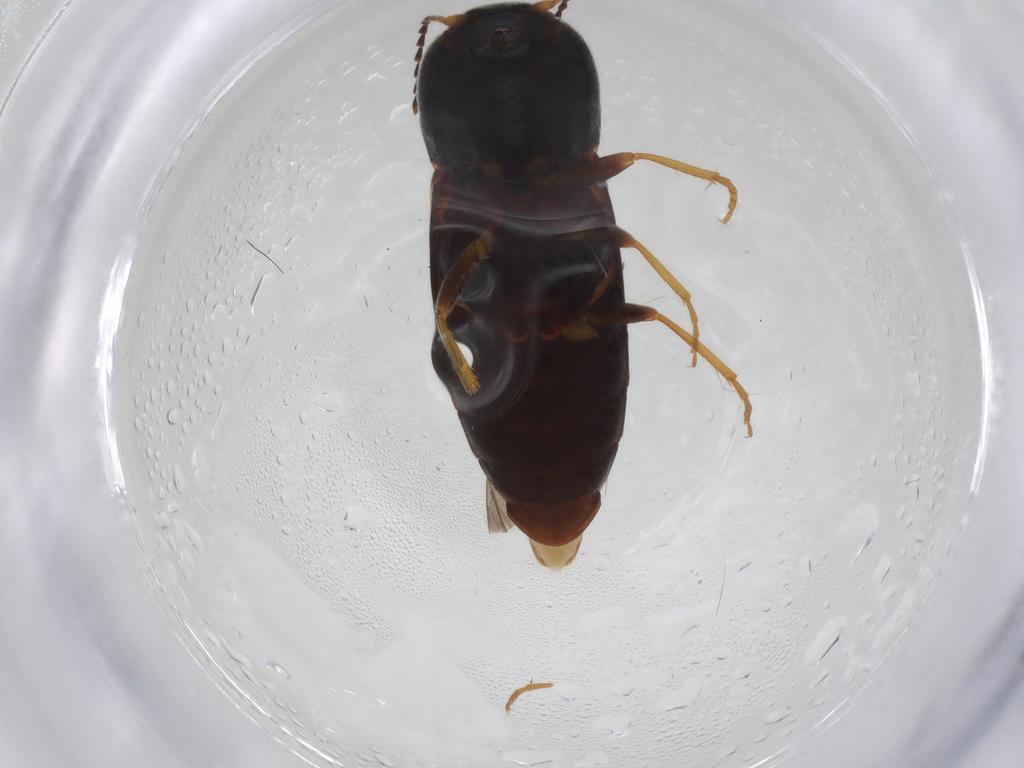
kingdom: Animalia
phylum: Arthropoda
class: Insecta
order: Coleoptera
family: Elateridae
